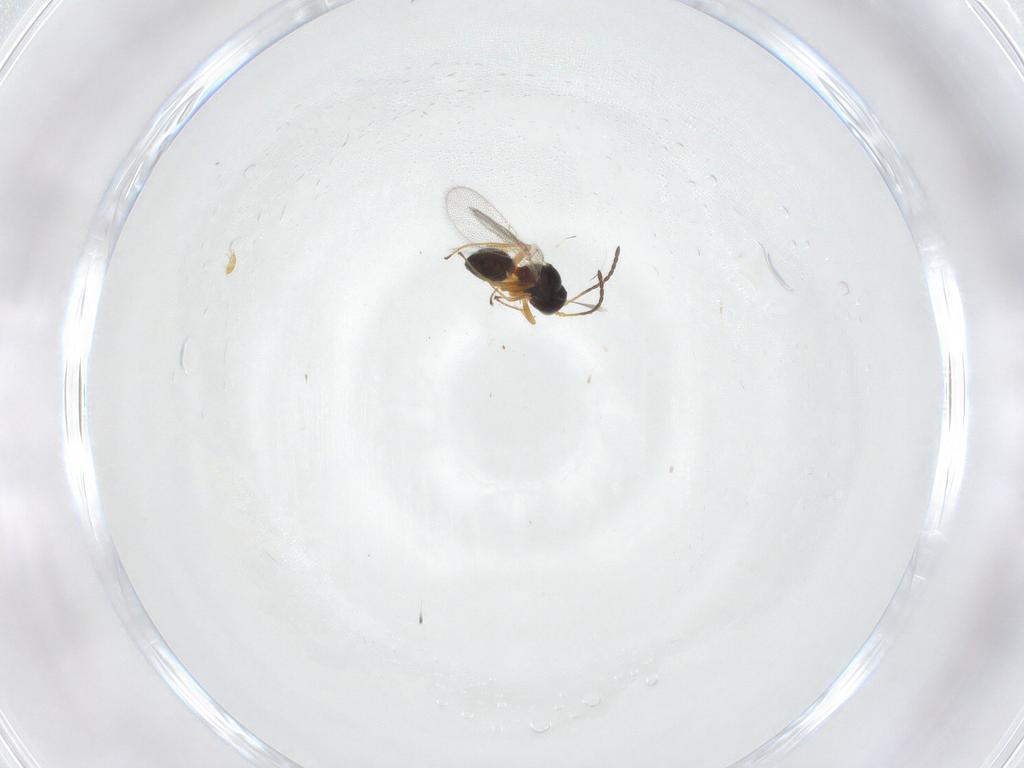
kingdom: Animalia
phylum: Arthropoda
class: Insecta
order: Hymenoptera
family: Figitidae
